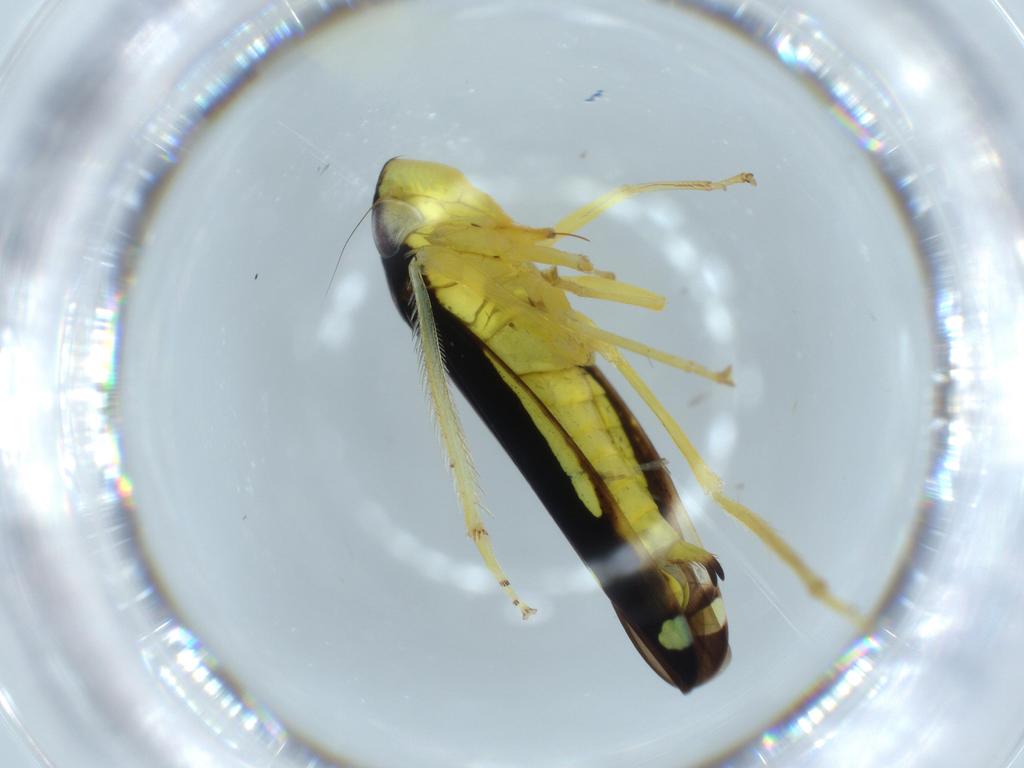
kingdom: Animalia
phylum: Arthropoda
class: Insecta
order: Hemiptera
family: Cicadellidae
